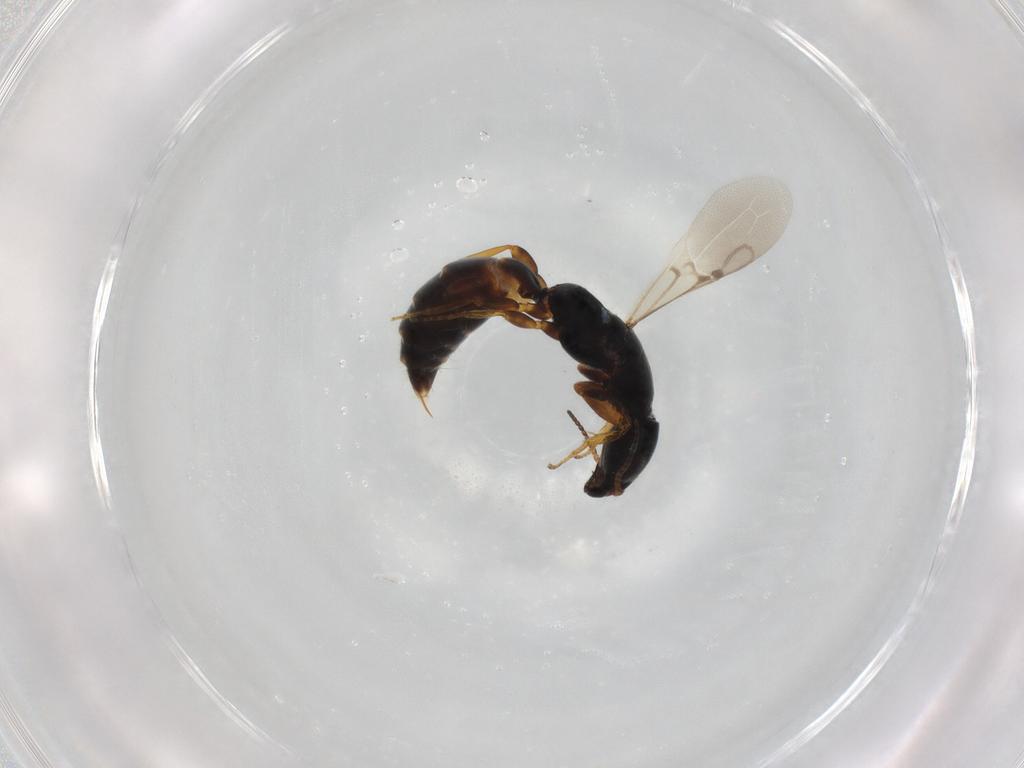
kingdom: Animalia
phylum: Arthropoda
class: Insecta
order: Hymenoptera
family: Bethylidae
